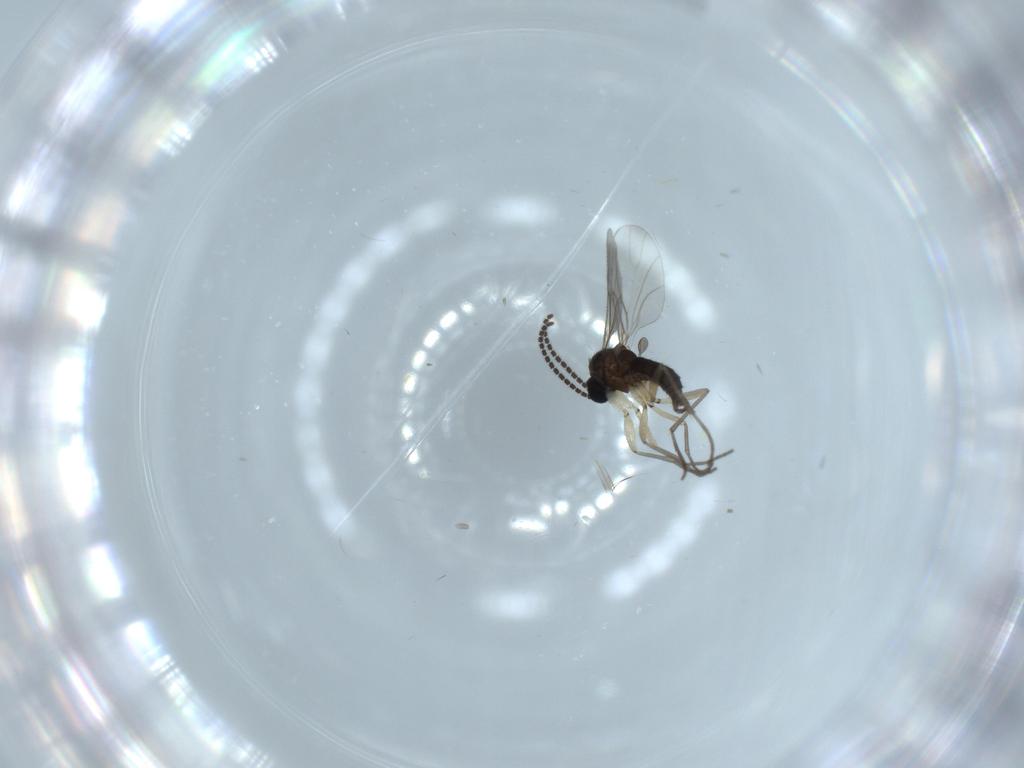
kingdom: Animalia
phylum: Arthropoda
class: Insecta
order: Diptera
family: Sciaridae
